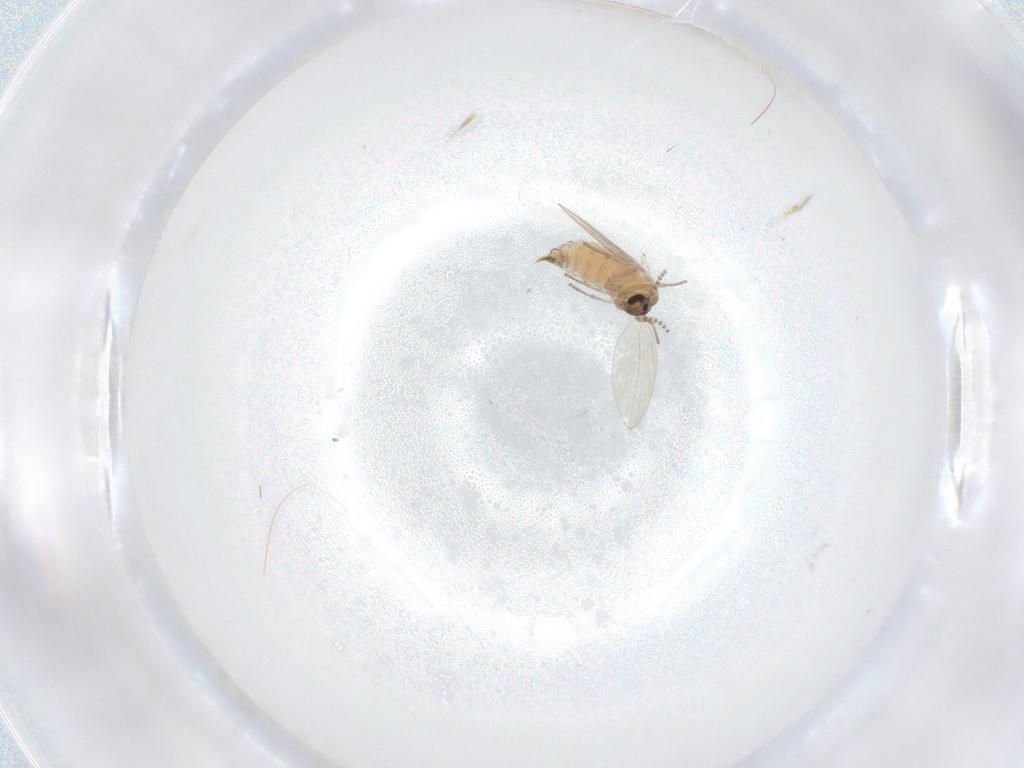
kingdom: Animalia
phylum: Arthropoda
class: Insecta
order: Diptera
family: Psychodidae
